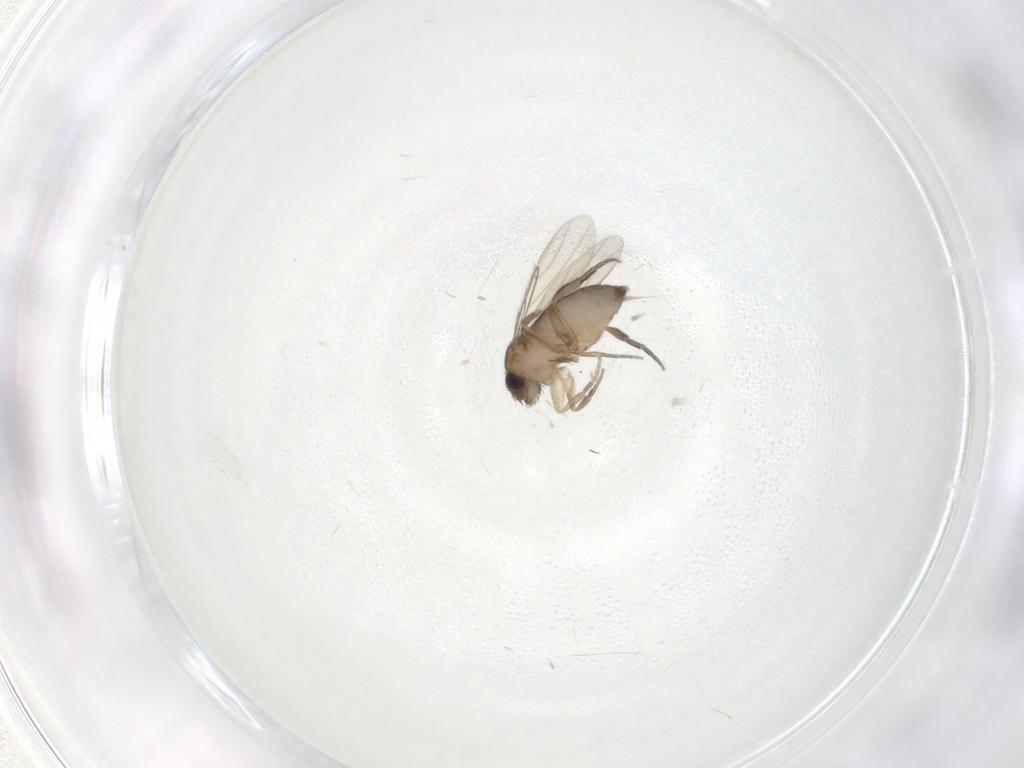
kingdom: Animalia
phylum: Arthropoda
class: Insecta
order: Diptera
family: Phoridae
